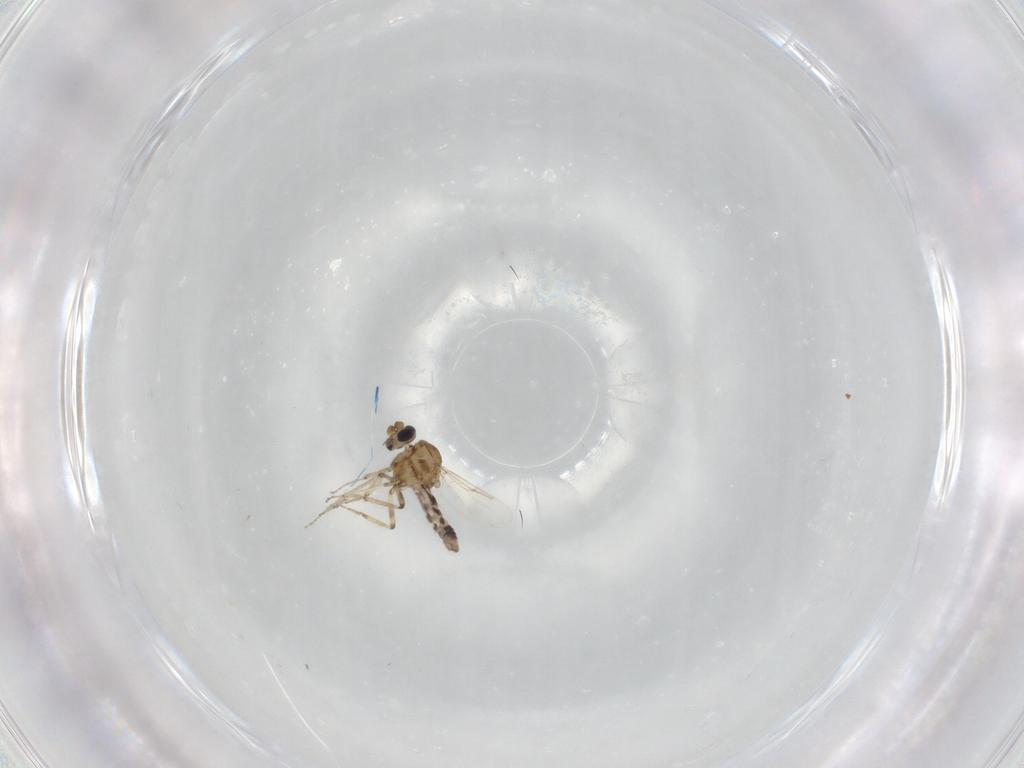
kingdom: Animalia
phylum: Arthropoda
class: Insecta
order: Diptera
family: Ceratopogonidae
